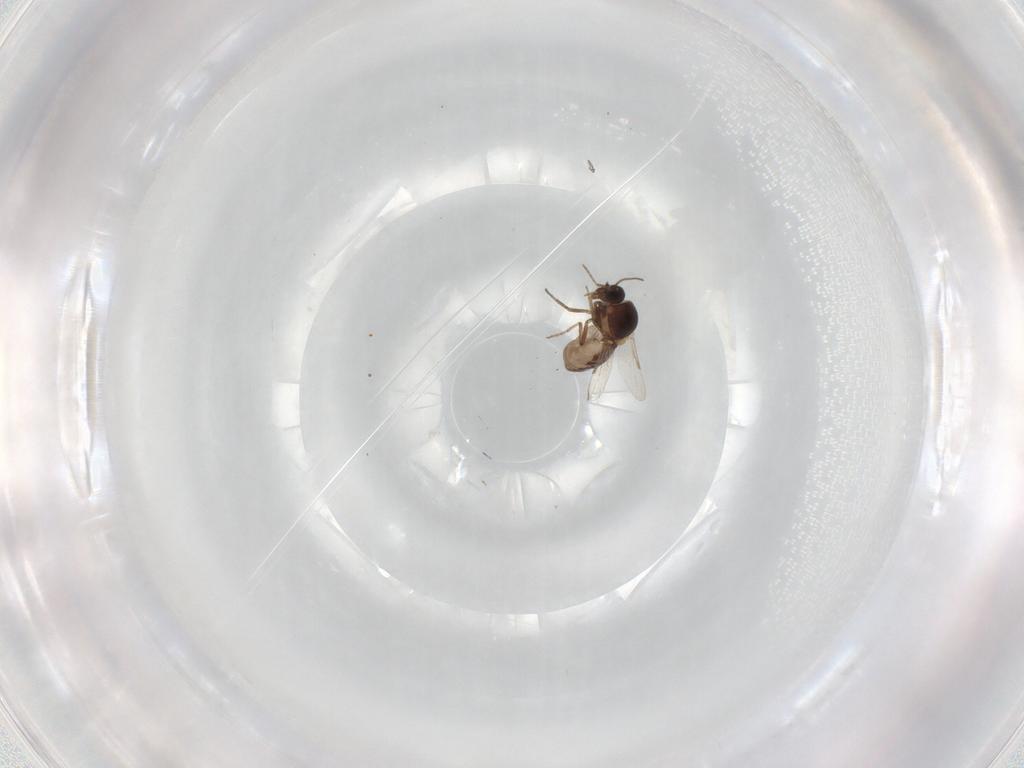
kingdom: Animalia
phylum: Arthropoda
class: Insecta
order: Diptera
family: Ceratopogonidae
